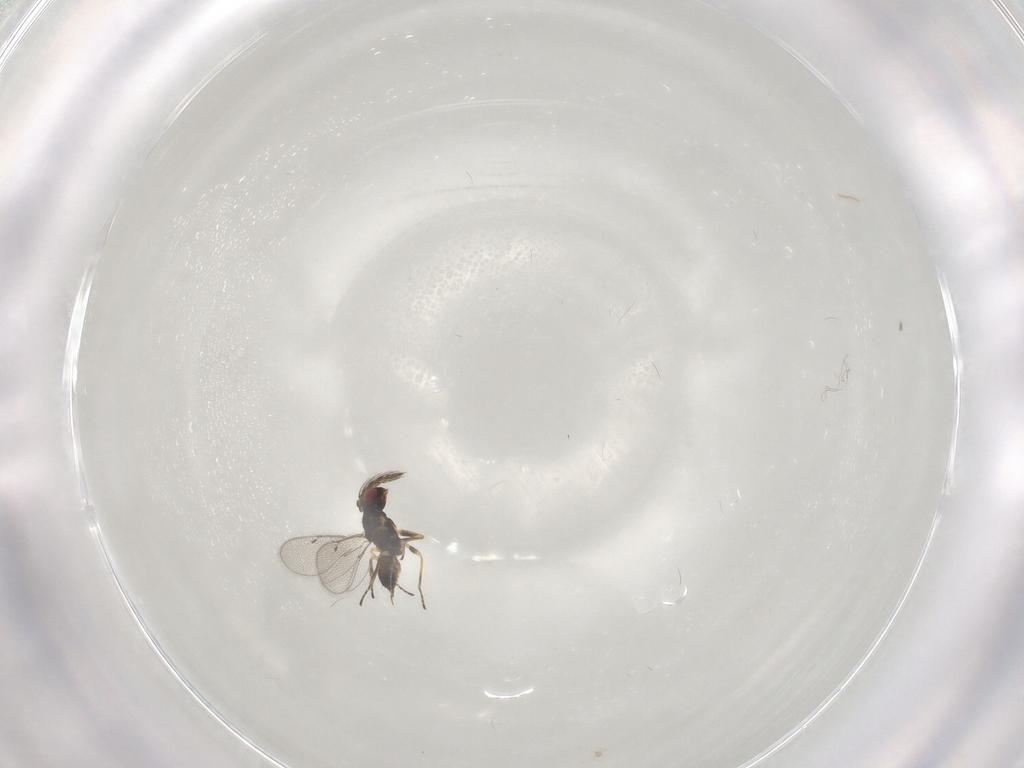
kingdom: Animalia
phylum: Arthropoda
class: Insecta
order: Hymenoptera
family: Eulophidae
